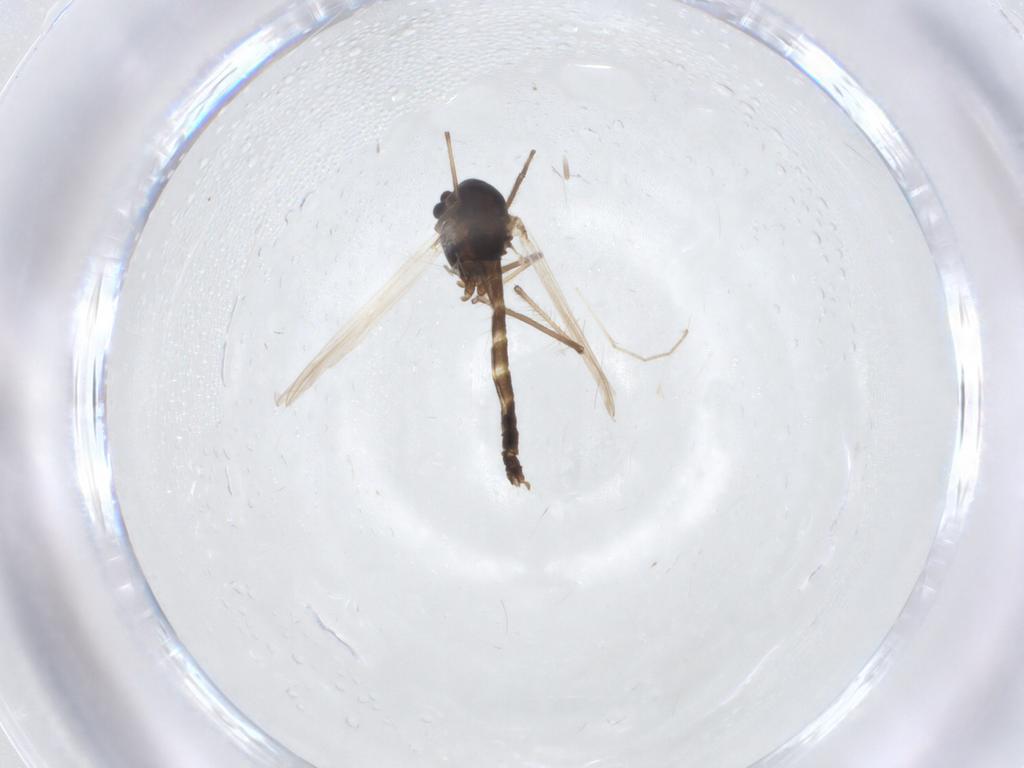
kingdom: Animalia
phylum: Arthropoda
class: Insecta
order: Diptera
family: Chironomidae
